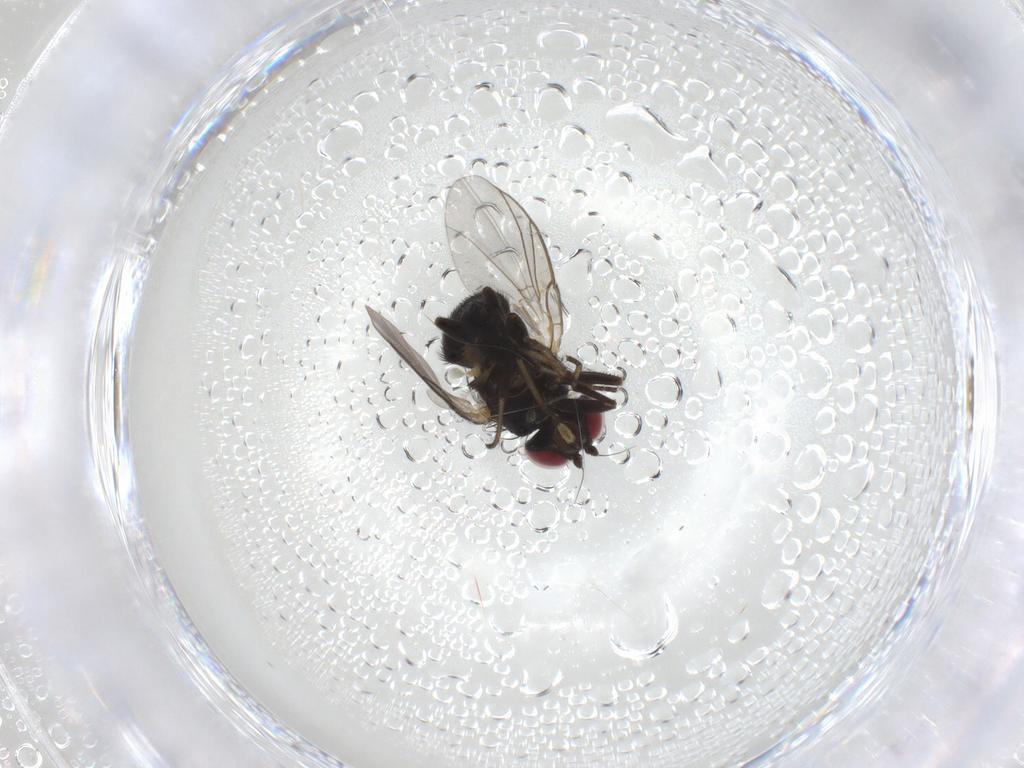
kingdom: Animalia
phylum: Arthropoda
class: Insecta
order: Diptera
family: Agromyzidae
